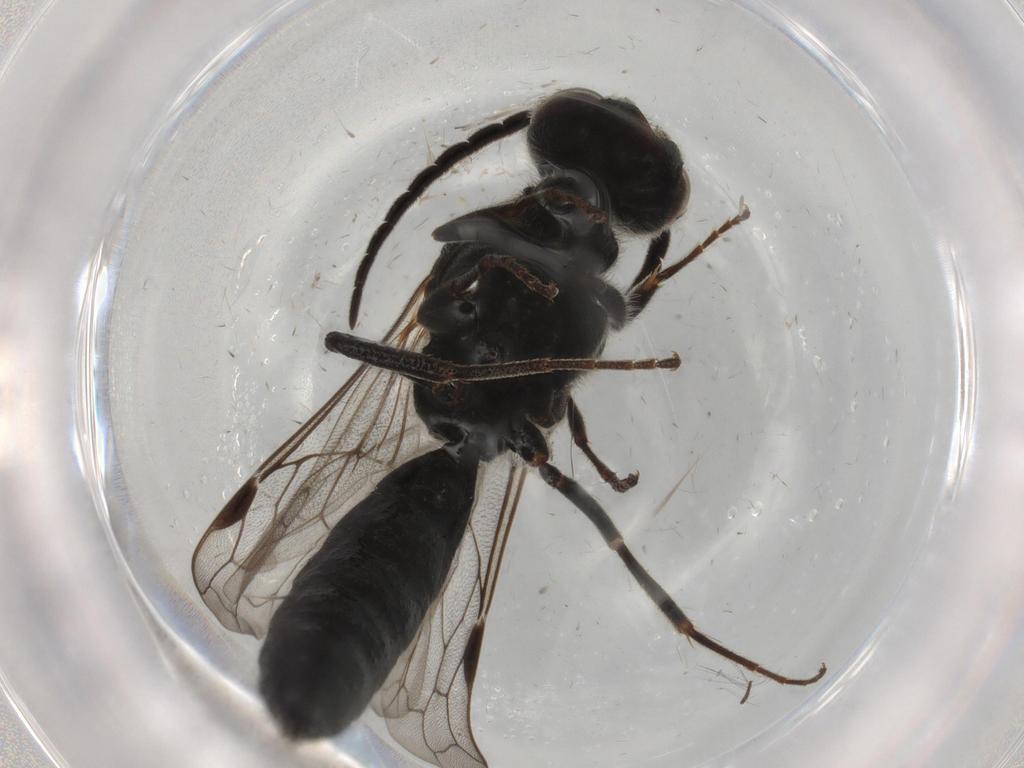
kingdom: Animalia
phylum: Arthropoda
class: Insecta
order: Hymenoptera
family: Thynnidae
